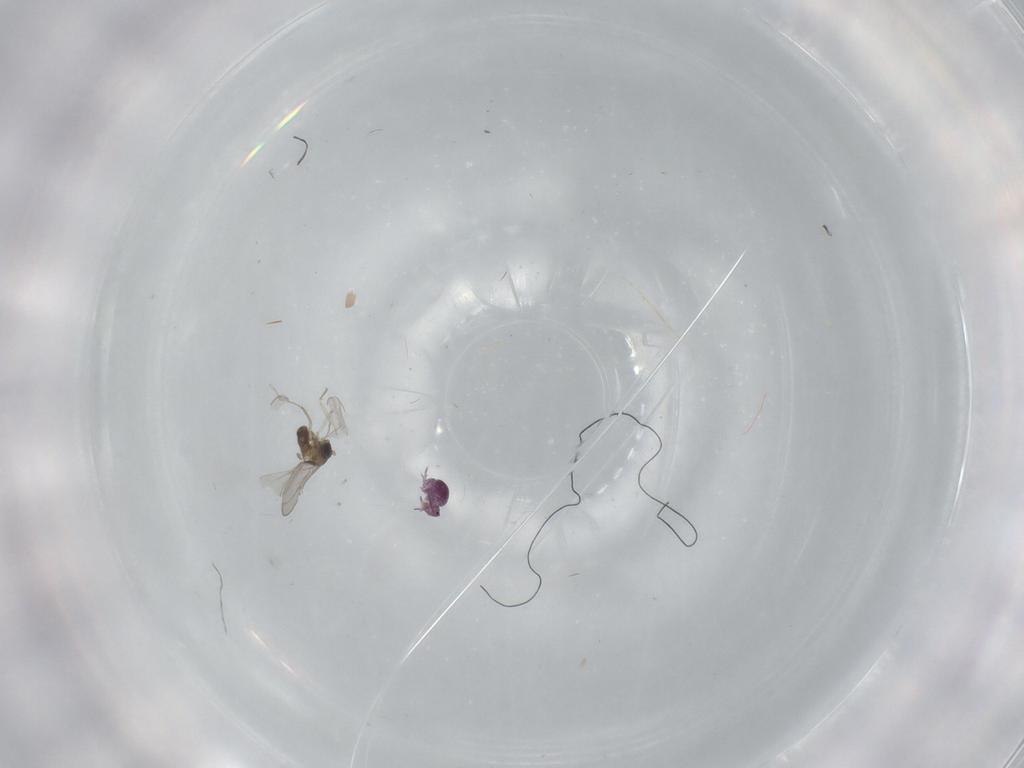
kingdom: Animalia
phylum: Arthropoda
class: Insecta
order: Diptera
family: Cecidomyiidae
